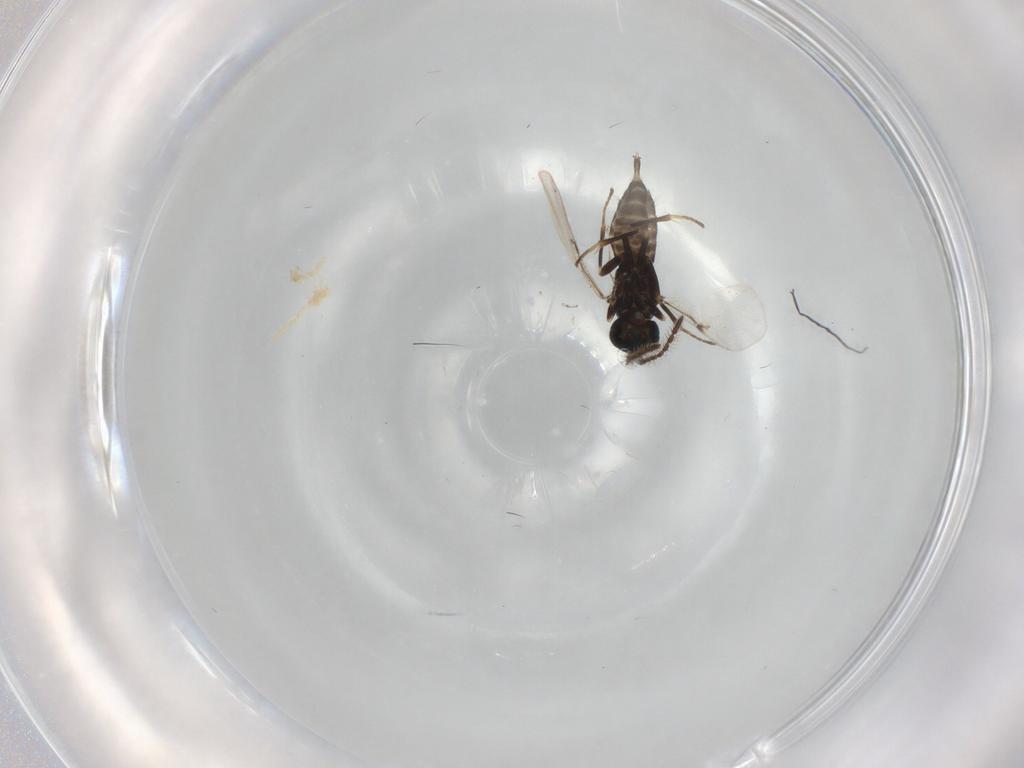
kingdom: Animalia
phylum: Arthropoda
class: Insecta
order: Hymenoptera
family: Encyrtidae
